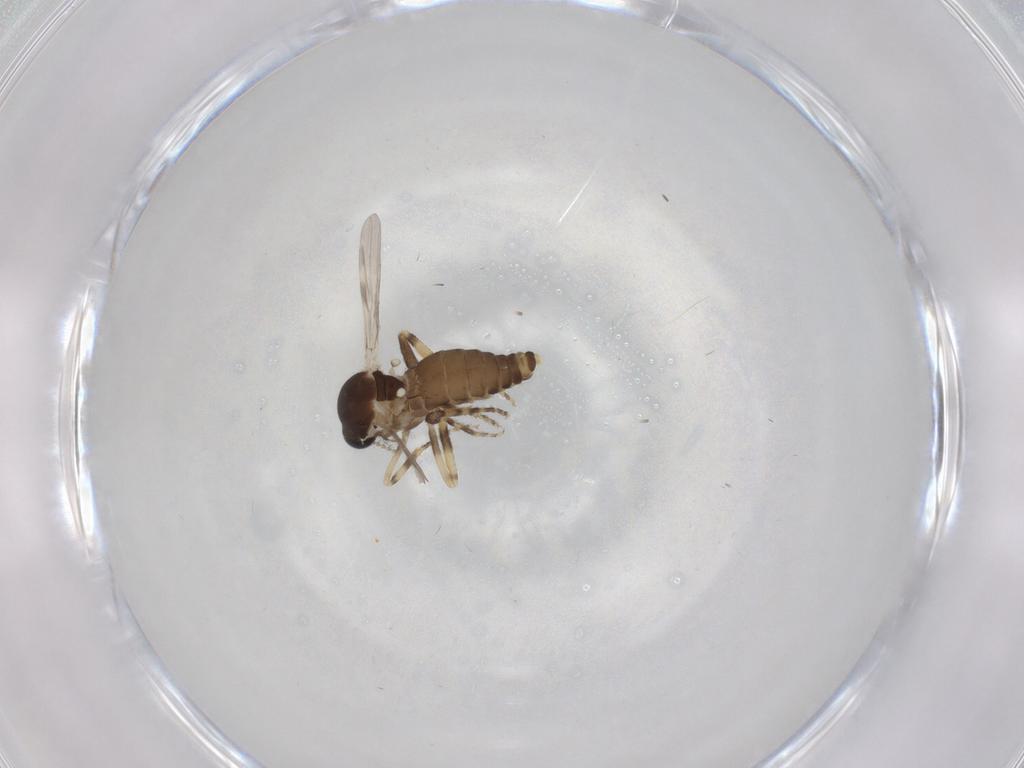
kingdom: Animalia
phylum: Arthropoda
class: Insecta
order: Diptera
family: Ceratopogonidae
